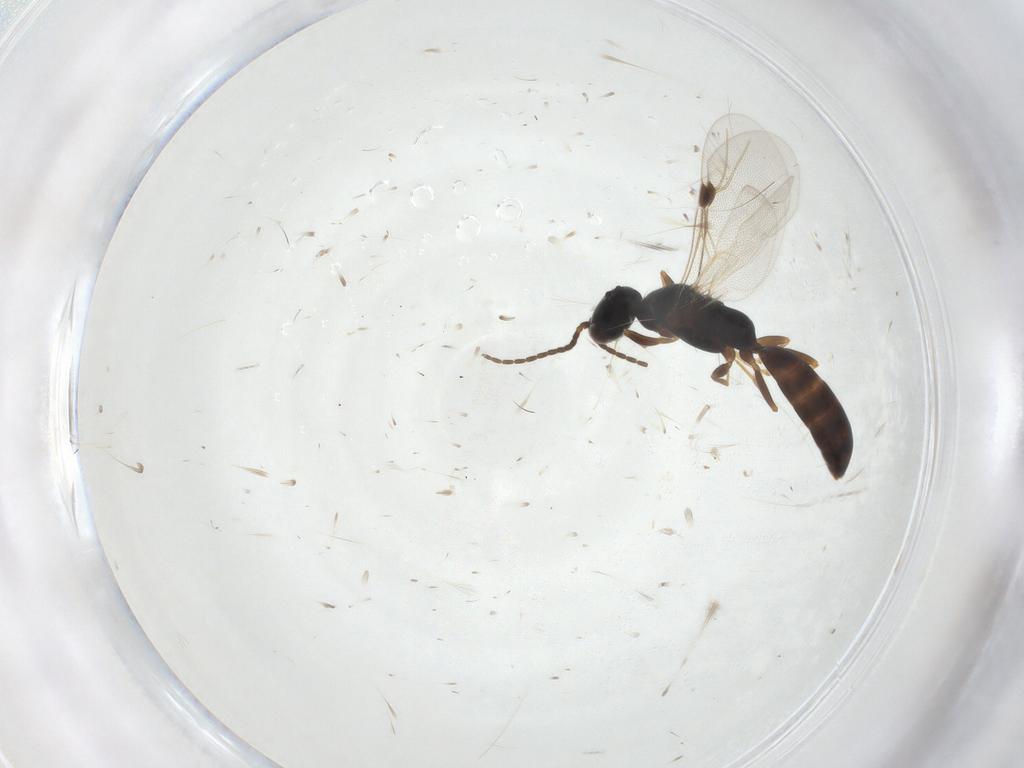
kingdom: Animalia
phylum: Arthropoda
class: Insecta
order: Hymenoptera
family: Bethylidae
